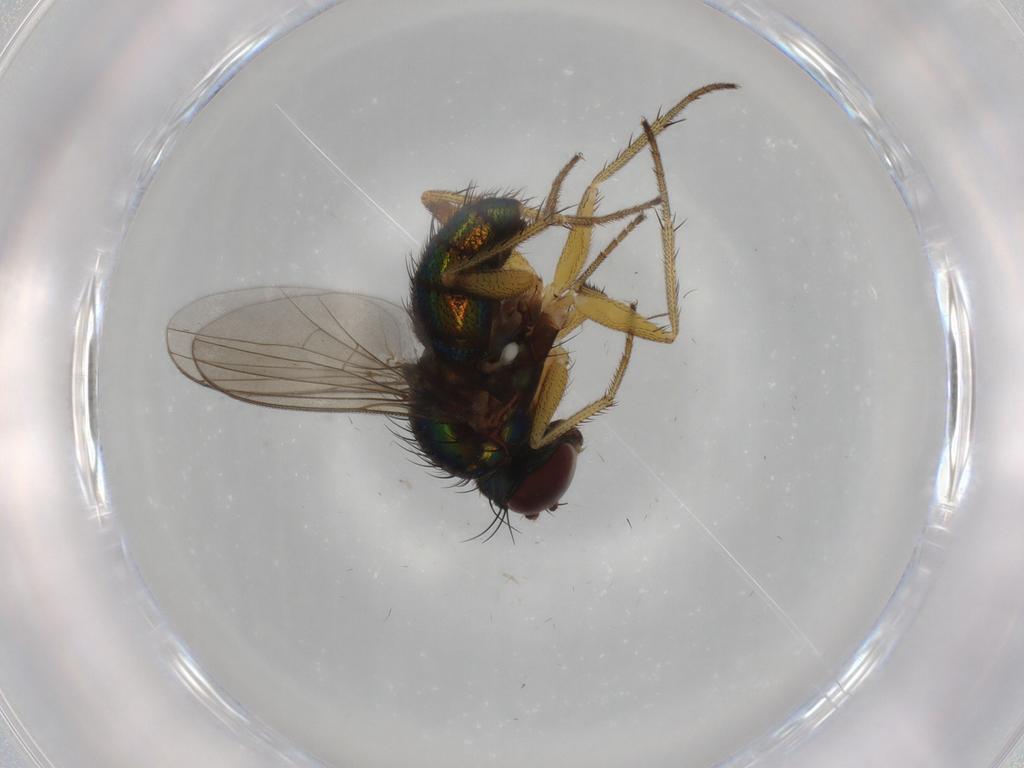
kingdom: Animalia
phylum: Arthropoda
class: Insecta
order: Diptera
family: Dolichopodidae
